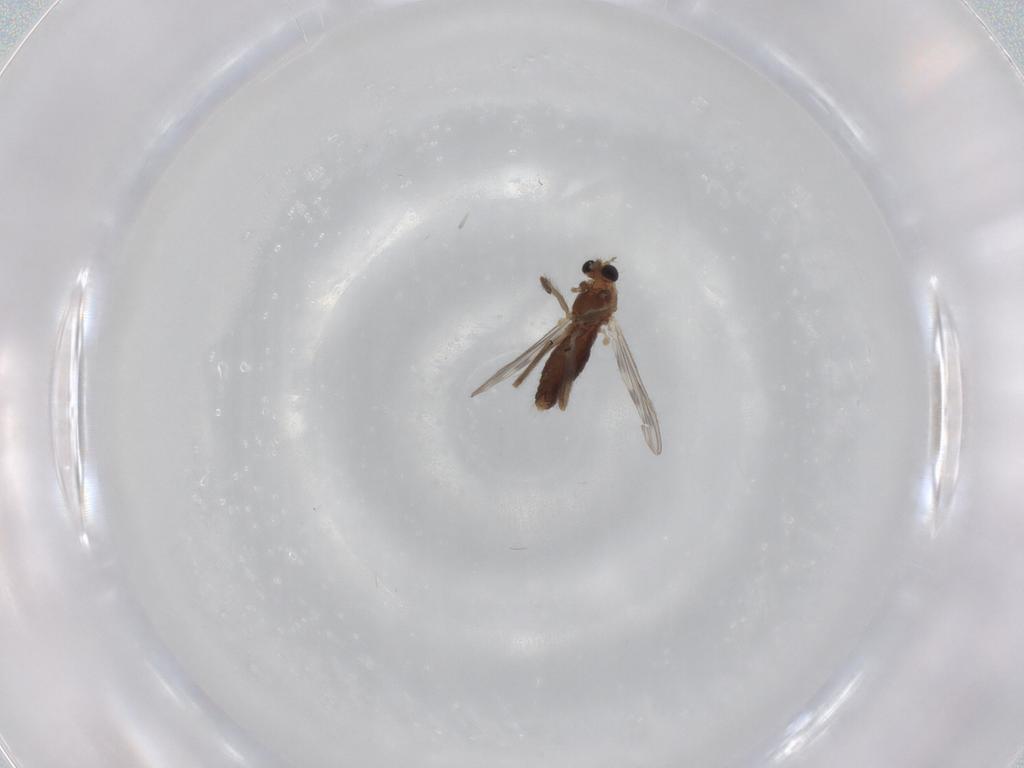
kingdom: Animalia
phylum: Arthropoda
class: Insecta
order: Diptera
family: Chironomidae
